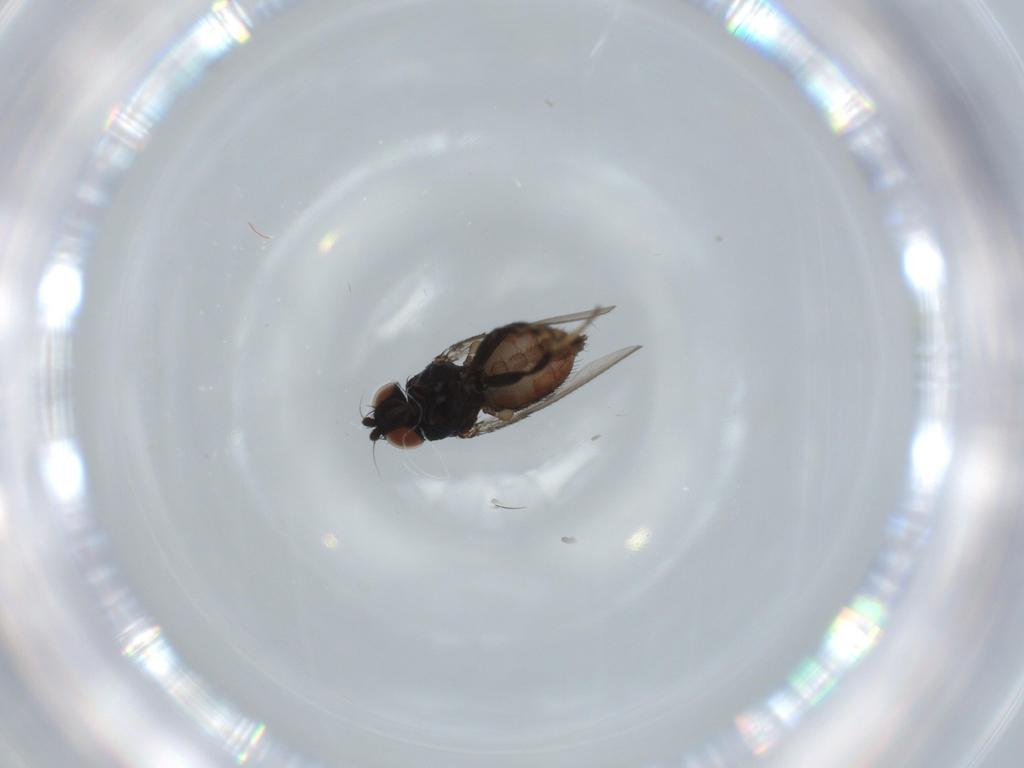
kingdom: Animalia
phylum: Arthropoda
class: Insecta
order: Diptera
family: Milichiidae
